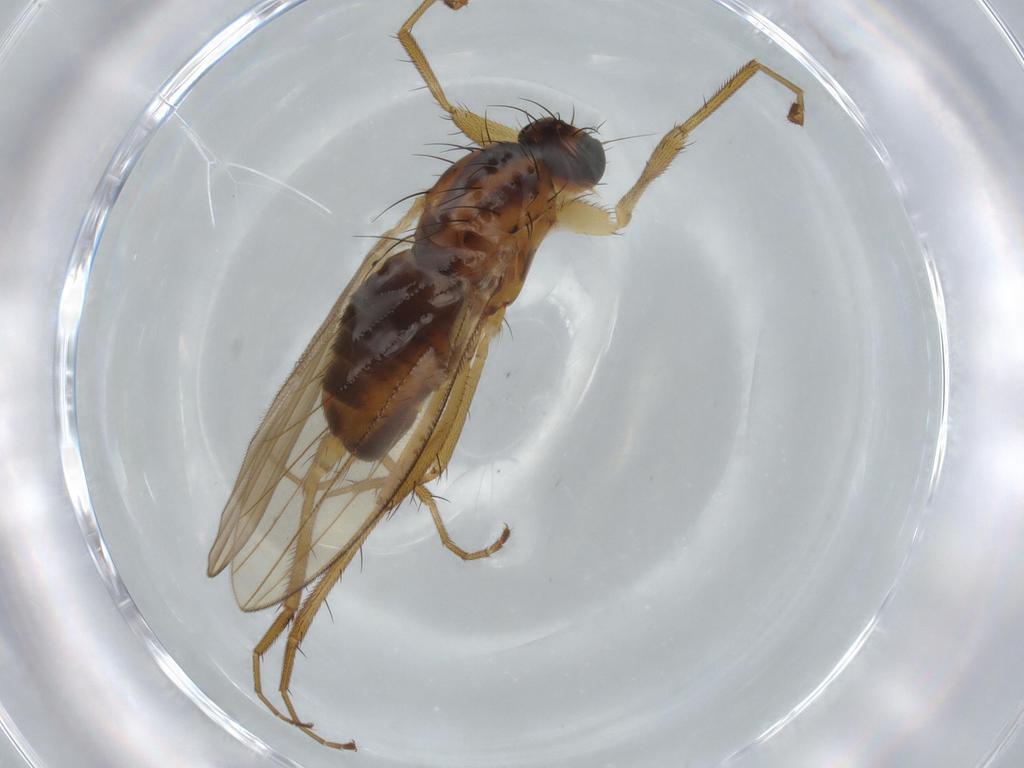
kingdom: Animalia
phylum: Arthropoda
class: Insecta
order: Diptera
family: Lonchopteridae
